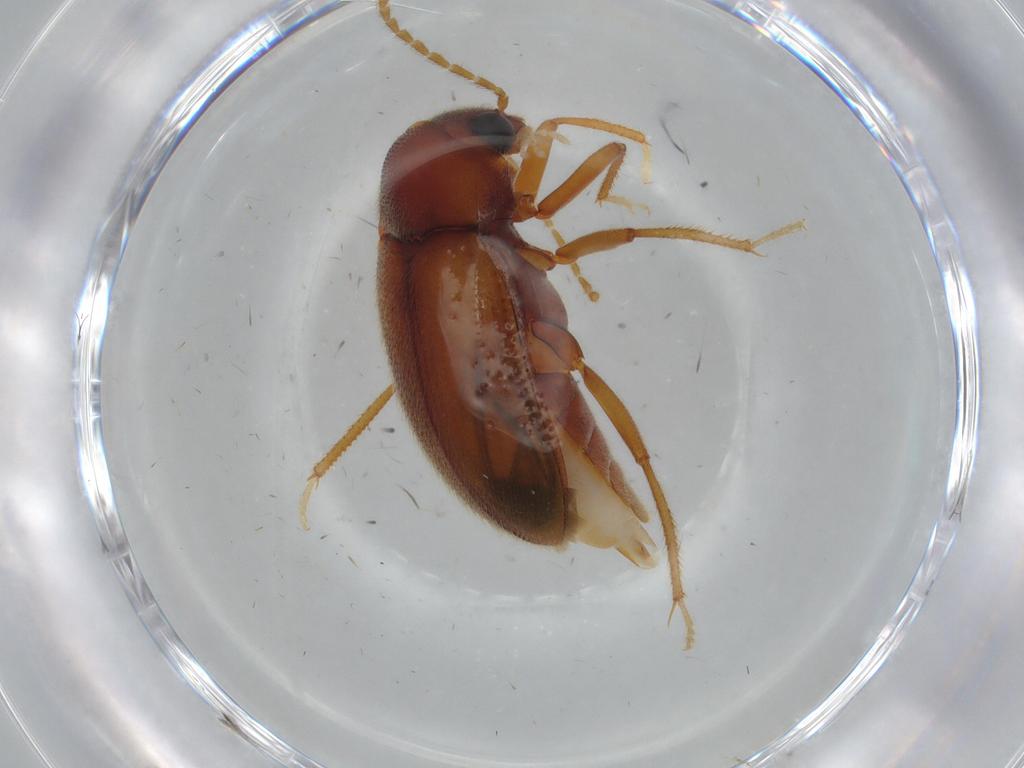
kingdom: Animalia
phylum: Arthropoda
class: Insecta
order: Coleoptera
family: Ptilodactylidae
